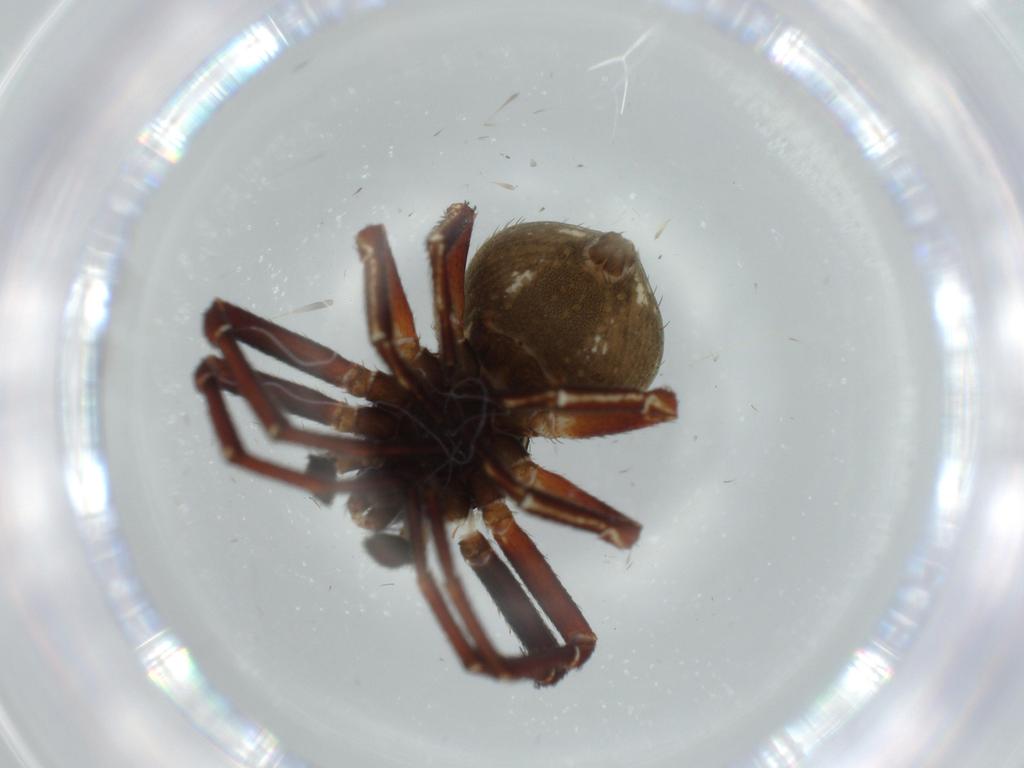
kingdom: Animalia
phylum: Arthropoda
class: Arachnida
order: Araneae
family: Thomisidae
